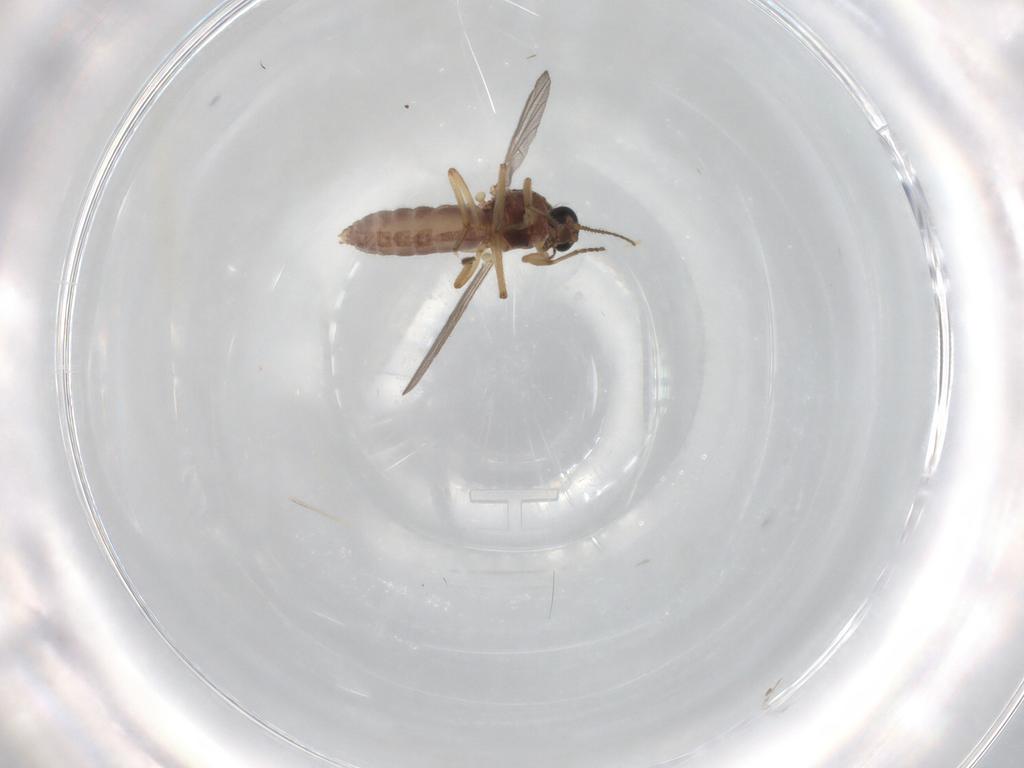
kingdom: Animalia
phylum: Arthropoda
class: Insecta
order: Diptera
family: Ceratopogonidae
